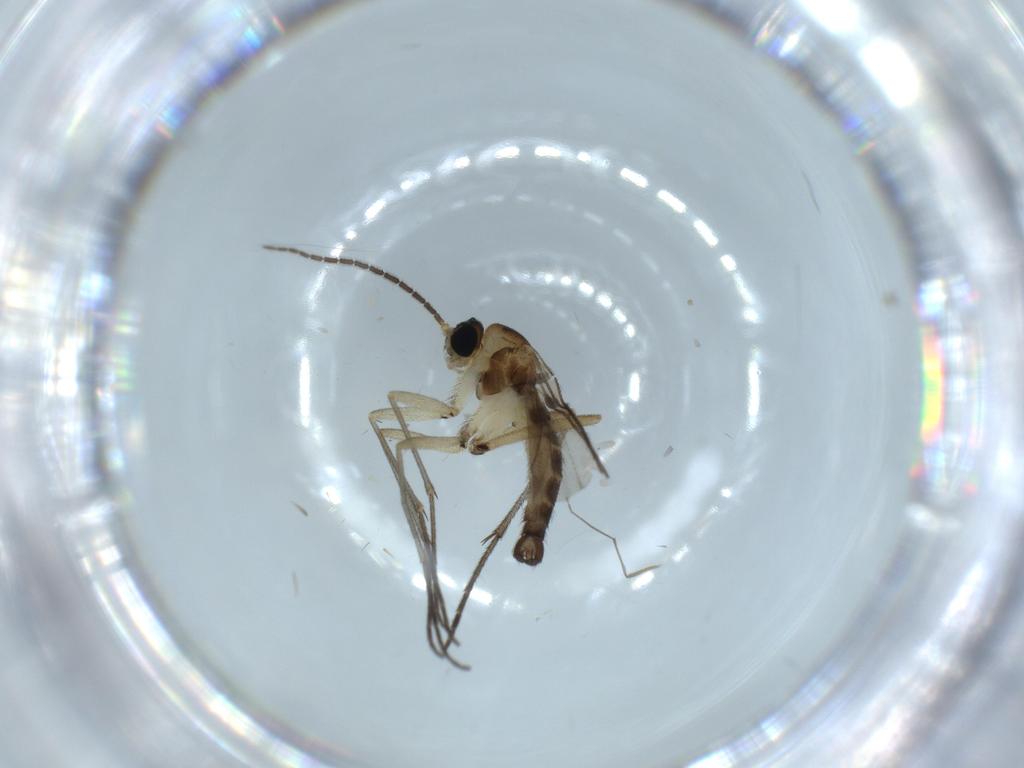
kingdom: Animalia
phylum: Arthropoda
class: Insecta
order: Diptera
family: Sciaridae
